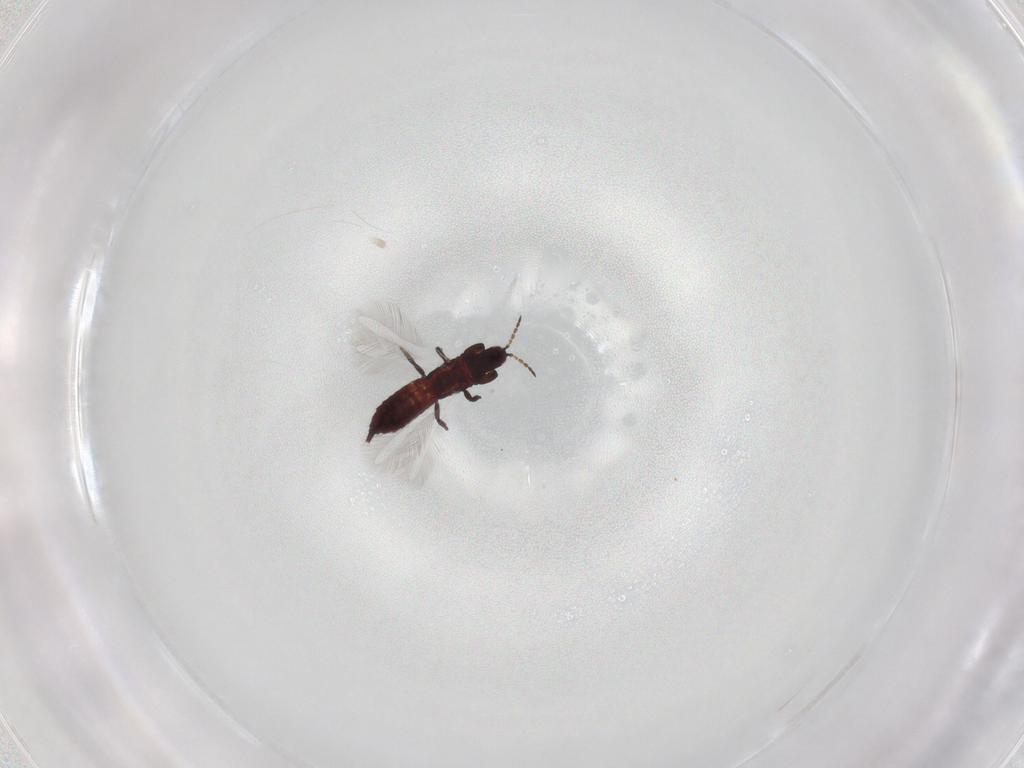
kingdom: Animalia
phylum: Arthropoda
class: Insecta
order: Thysanoptera
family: Phlaeothripidae
